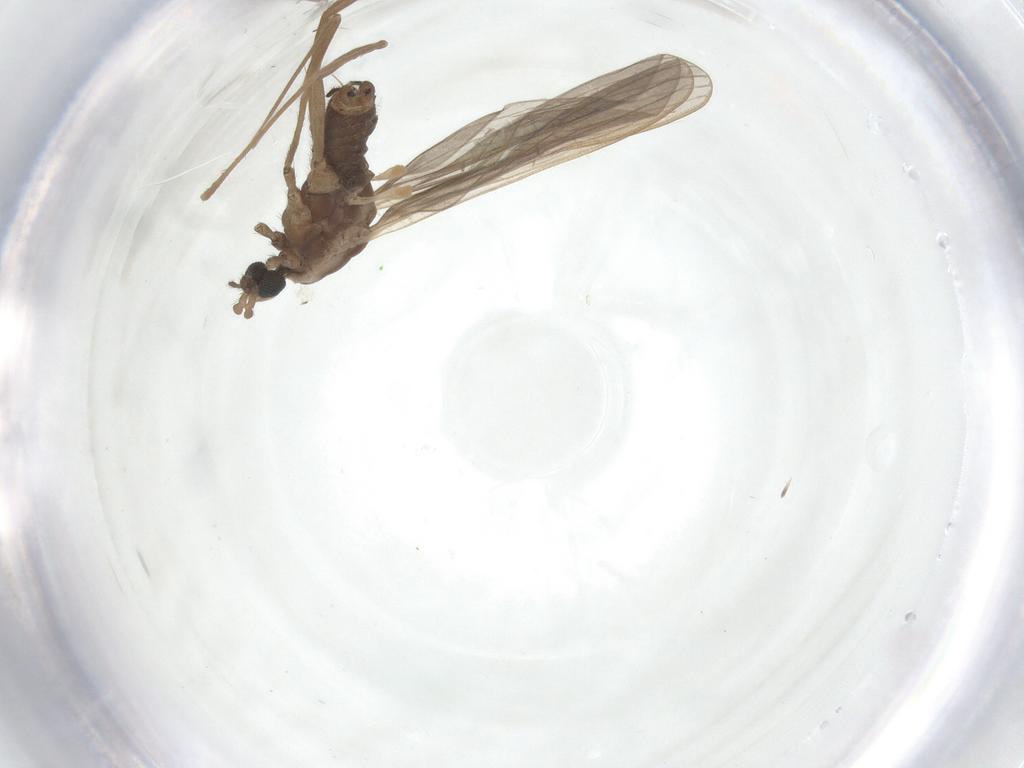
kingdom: Animalia
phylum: Arthropoda
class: Insecta
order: Diptera
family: Limoniidae
